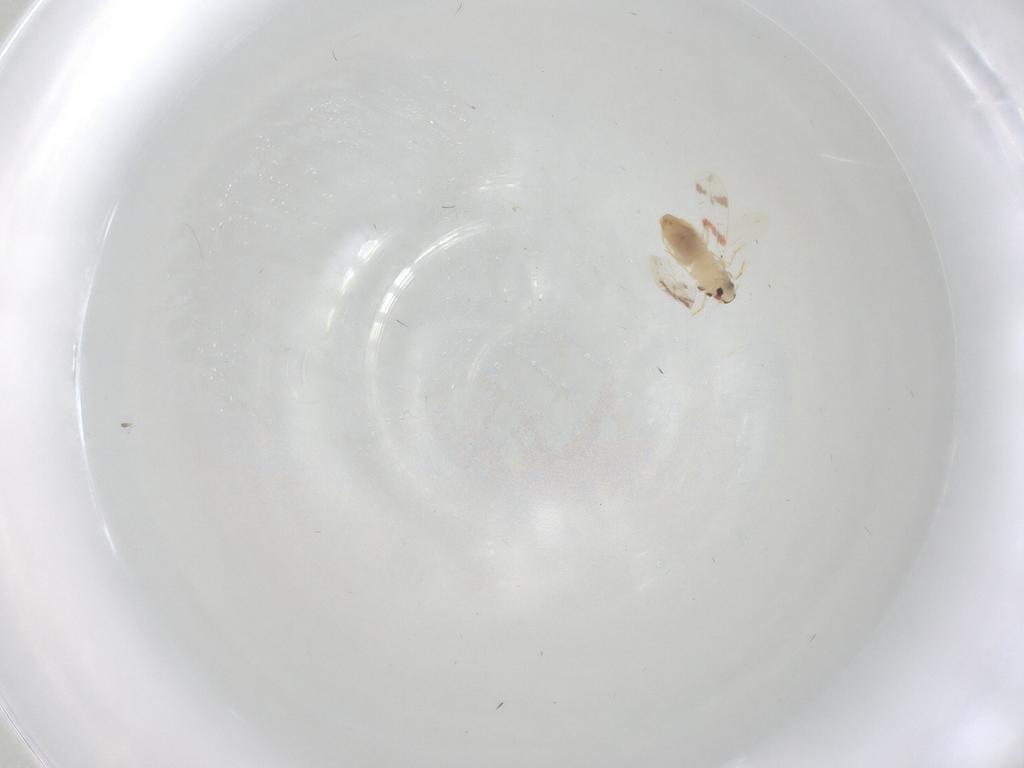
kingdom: Animalia
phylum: Arthropoda
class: Insecta
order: Hemiptera
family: Aleyrodidae
